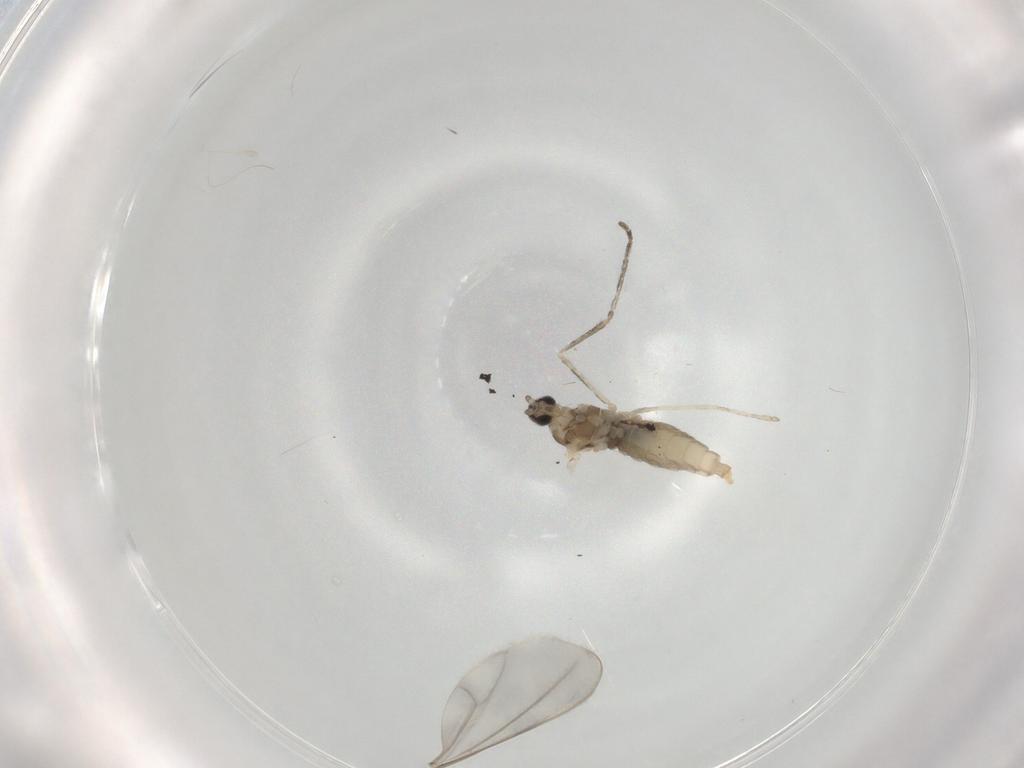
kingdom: Animalia
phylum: Arthropoda
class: Insecta
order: Diptera
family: Cecidomyiidae
